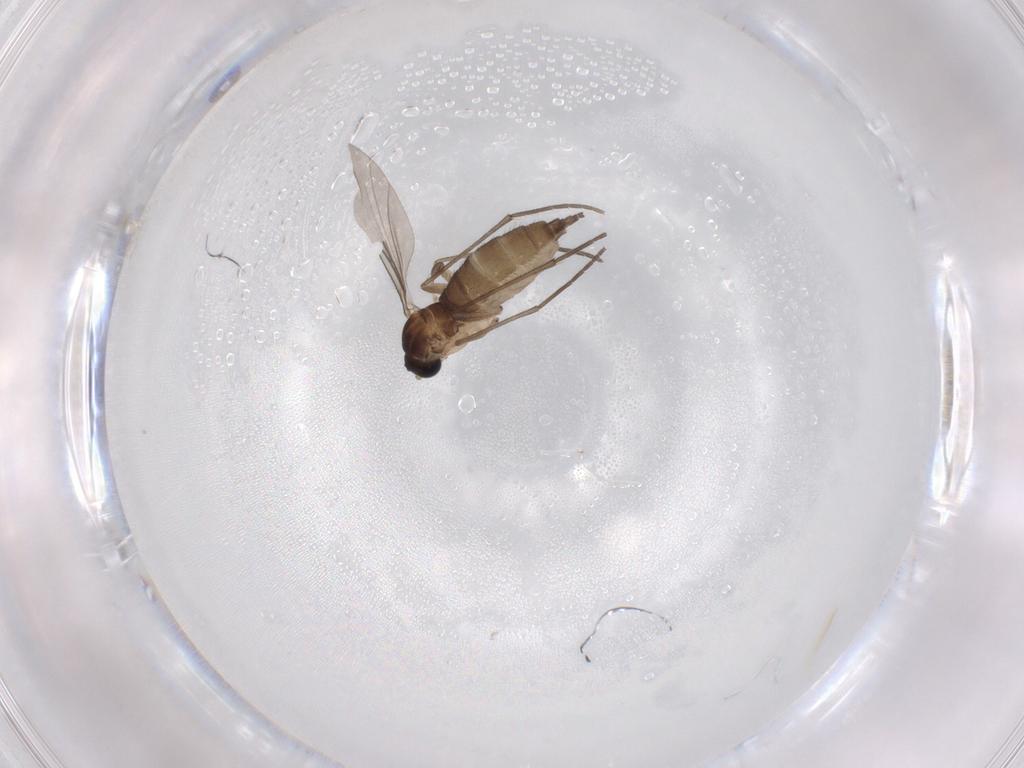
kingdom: Animalia
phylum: Arthropoda
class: Insecta
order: Diptera
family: Sciaridae
